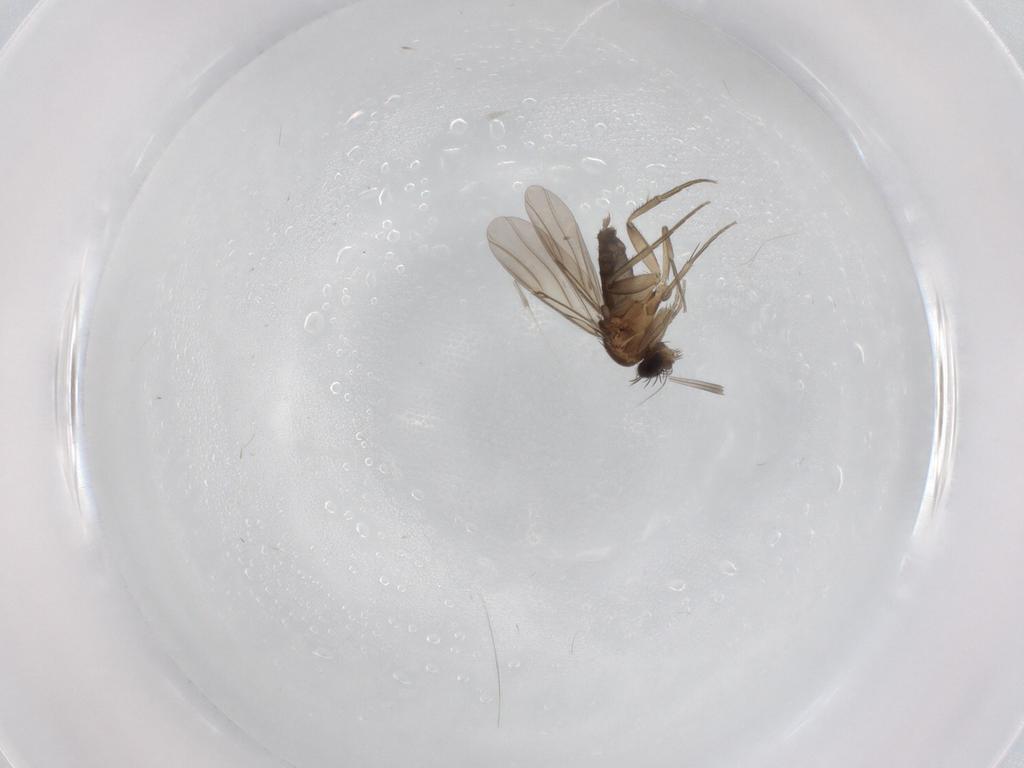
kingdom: Animalia
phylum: Arthropoda
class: Insecta
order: Diptera
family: Phoridae
